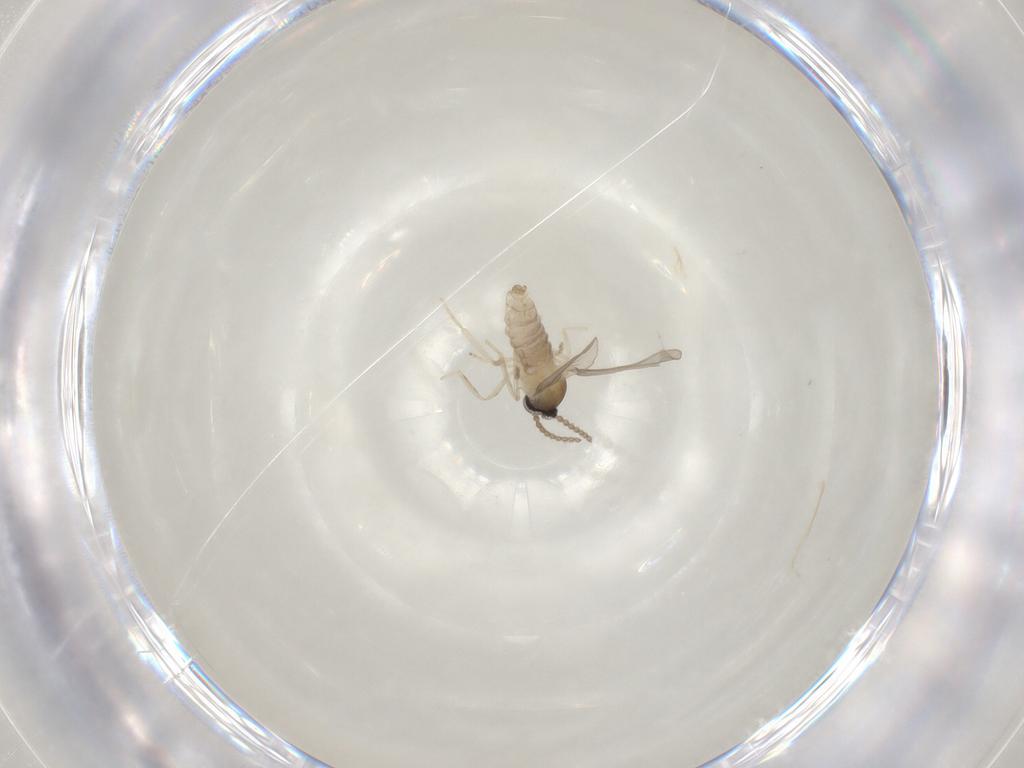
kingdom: Animalia
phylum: Arthropoda
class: Insecta
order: Diptera
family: Cecidomyiidae
